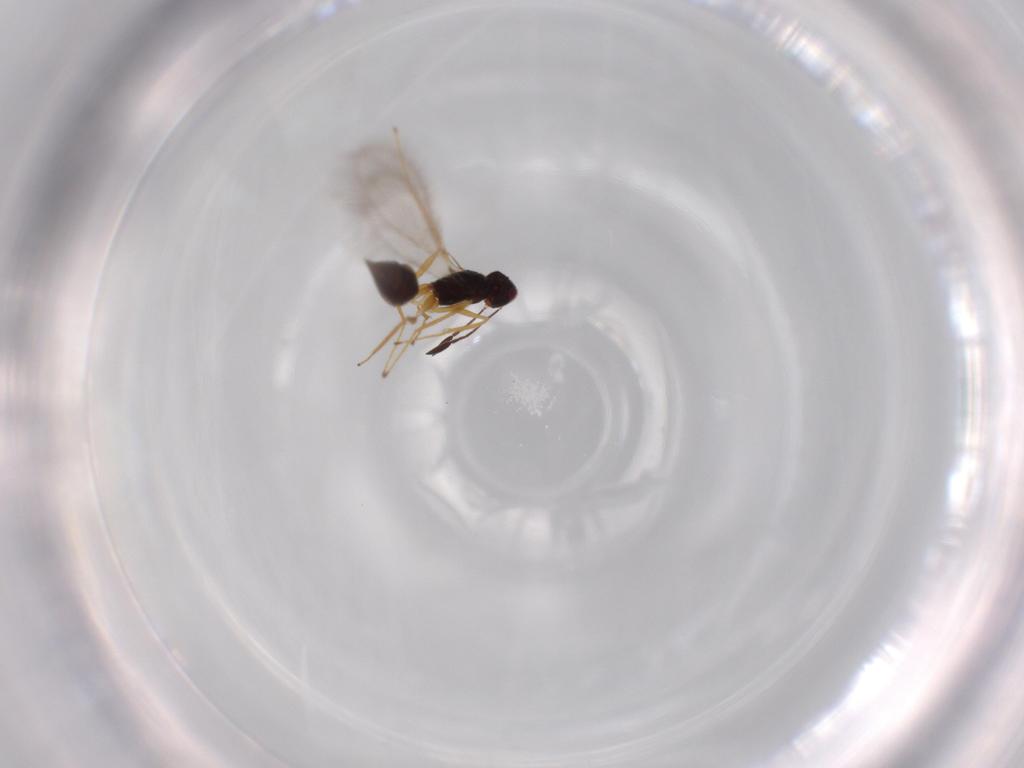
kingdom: Animalia
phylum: Arthropoda
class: Insecta
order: Hymenoptera
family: Mymaridae
